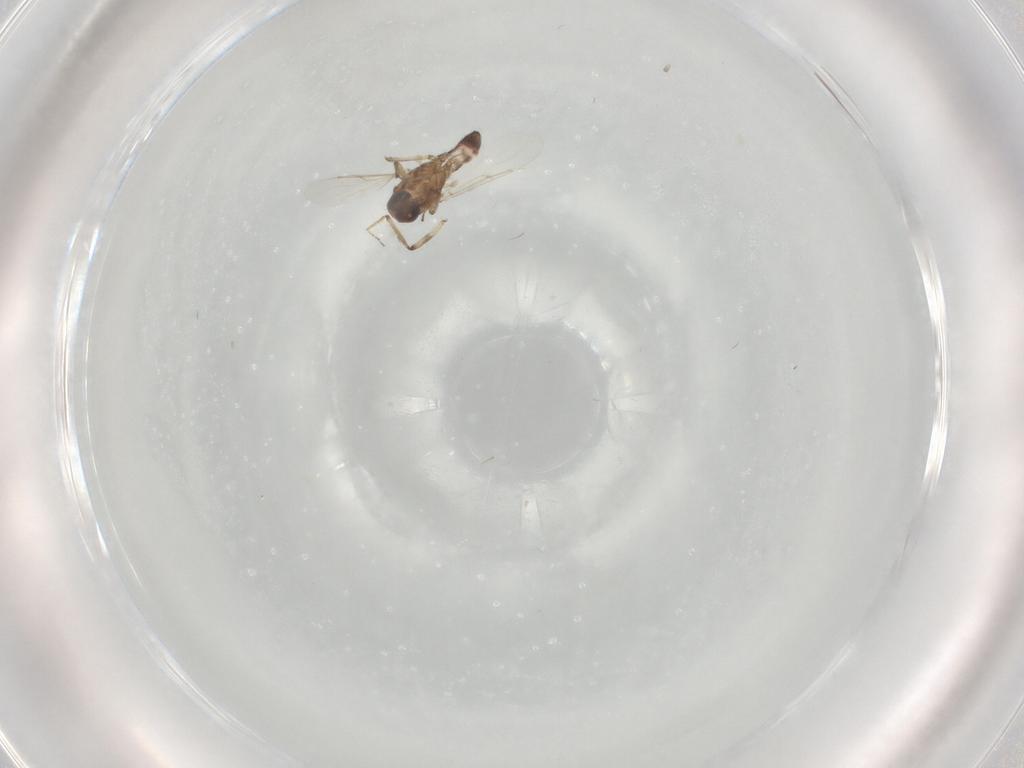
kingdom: Animalia
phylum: Arthropoda
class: Insecta
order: Diptera
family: Ceratopogonidae
